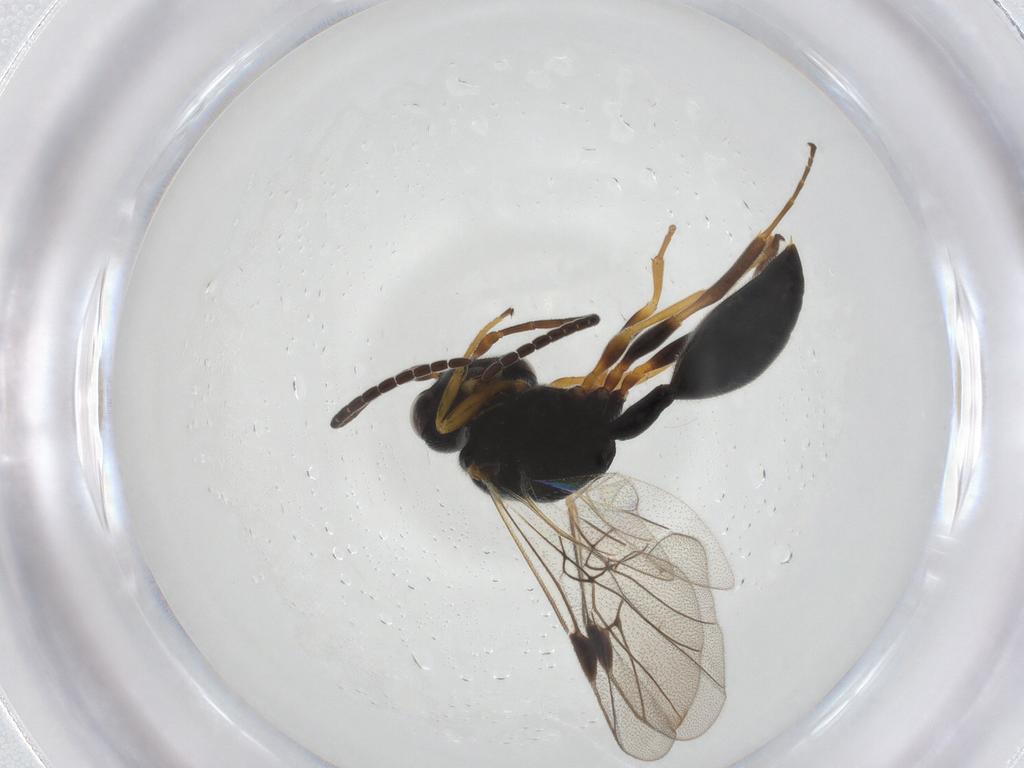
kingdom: Animalia
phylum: Arthropoda
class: Insecta
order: Hymenoptera
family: Heloridae
